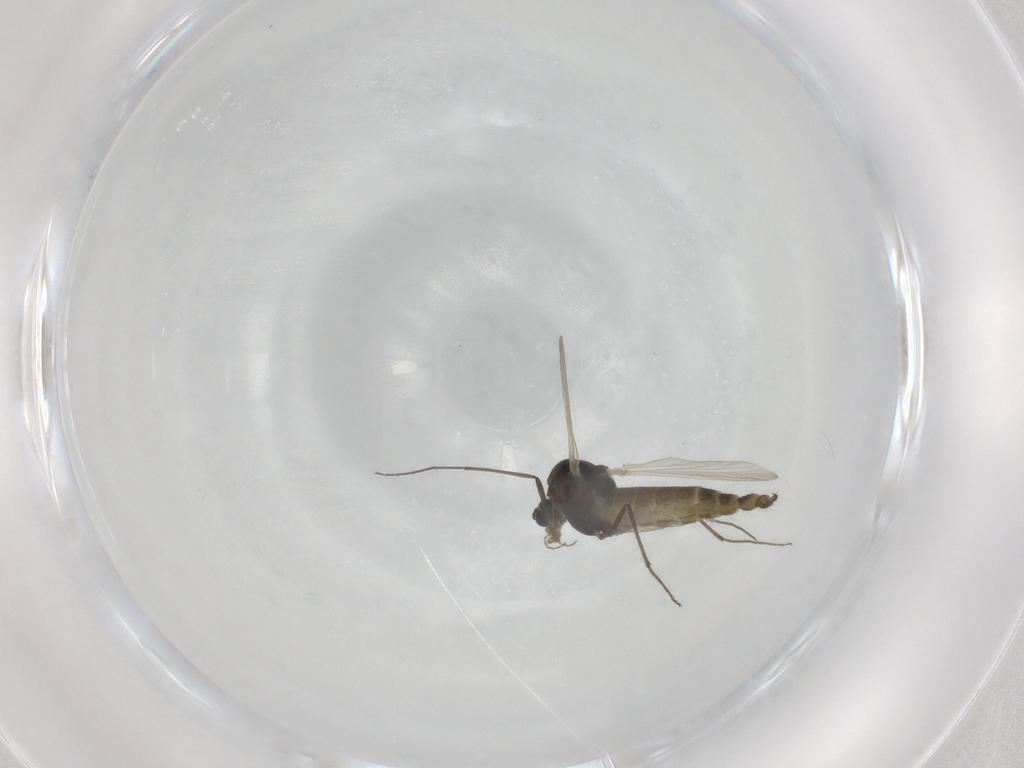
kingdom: Animalia
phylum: Arthropoda
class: Insecta
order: Diptera
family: Chironomidae
